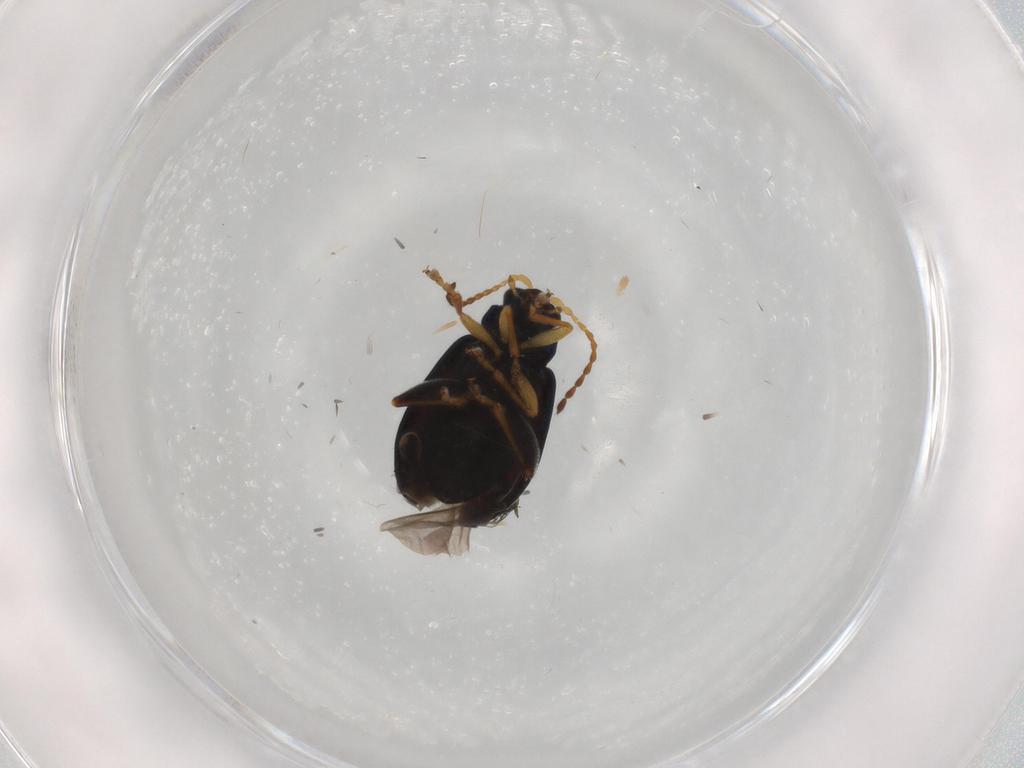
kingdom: Animalia
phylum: Arthropoda
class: Insecta
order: Coleoptera
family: Chrysomelidae
